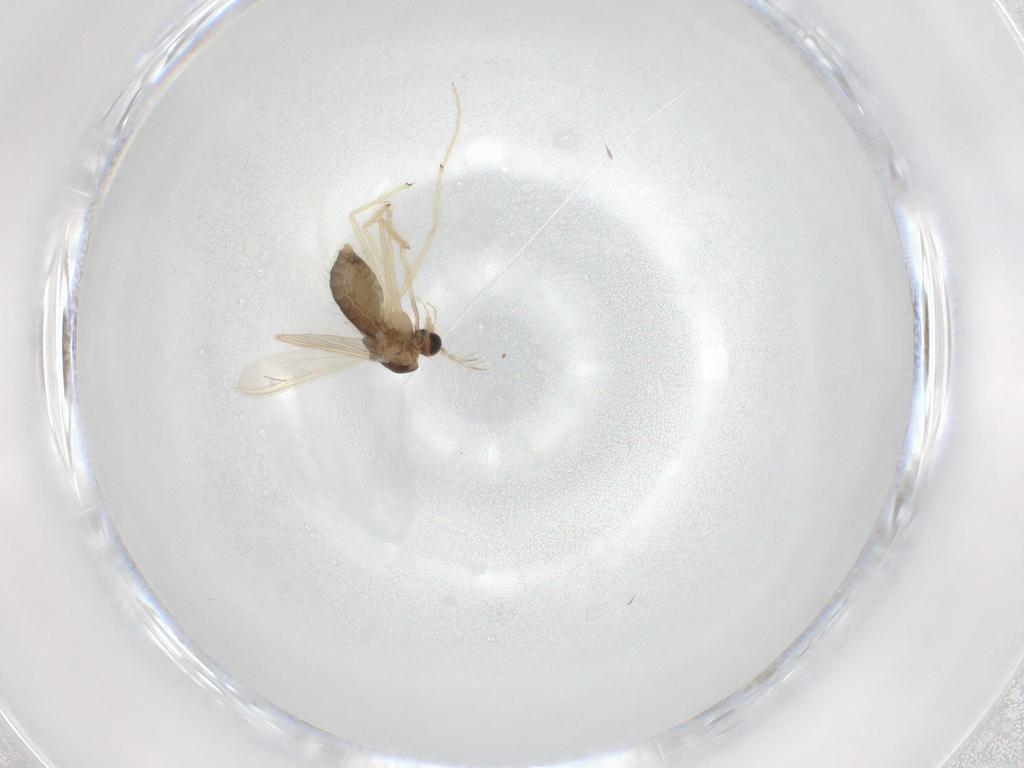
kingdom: Animalia
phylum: Arthropoda
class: Insecta
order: Diptera
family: Chironomidae
